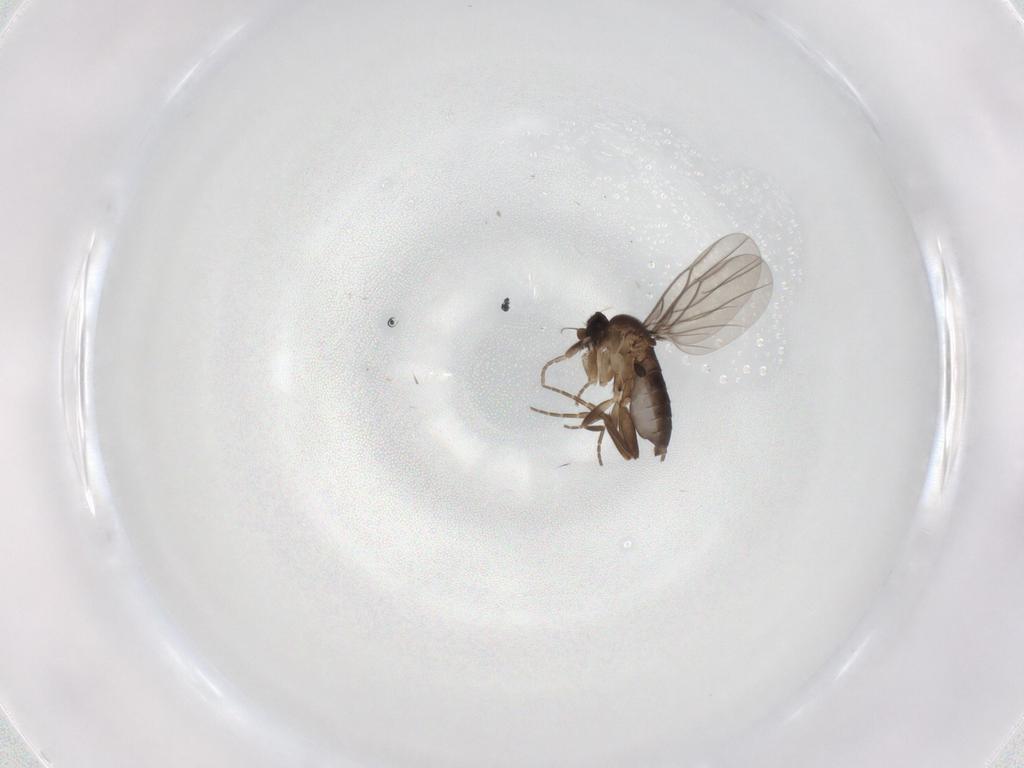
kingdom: Animalia
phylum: Arthropoda
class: Insecta
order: Diptera
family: Phoridae
